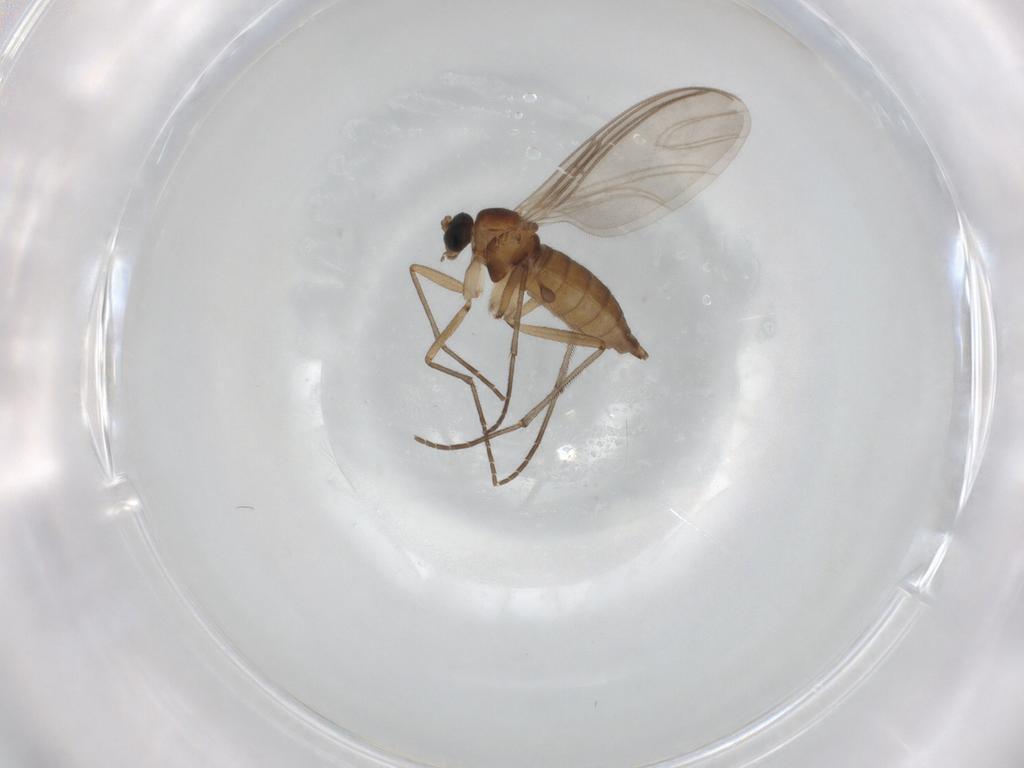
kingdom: Animalia
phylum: Arthropoda
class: Insecta
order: Diptera
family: Sciaridae
